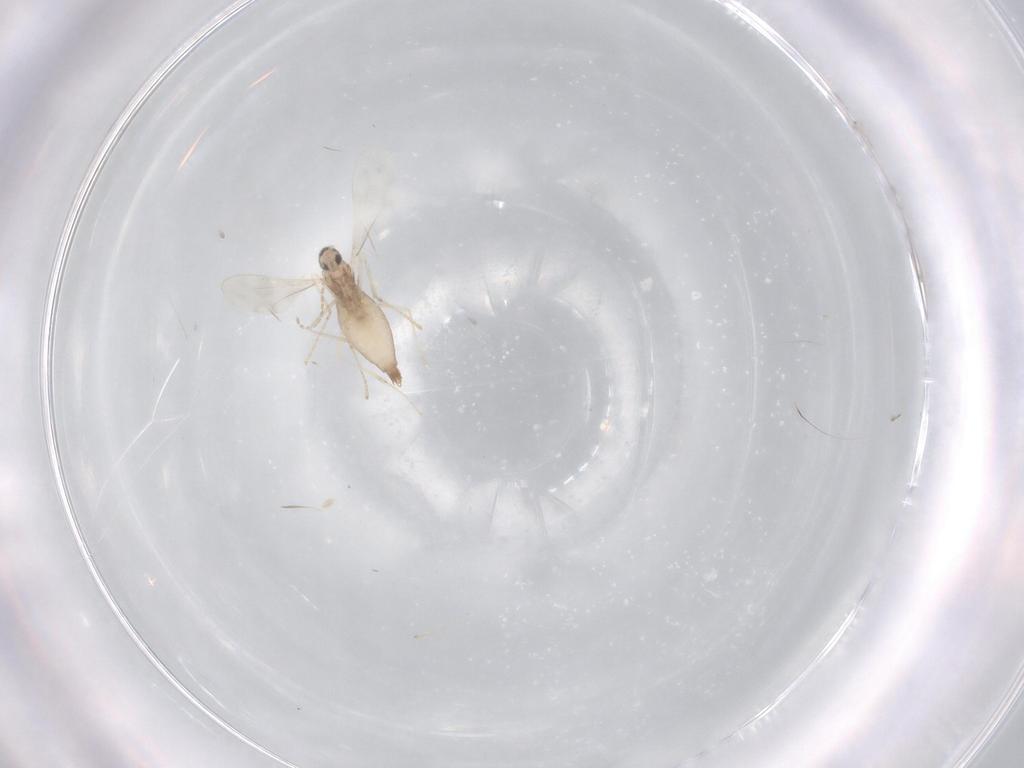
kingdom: Animalia
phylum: Arthropoda
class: Insecta
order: Diptera
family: Cecidomyiidae
